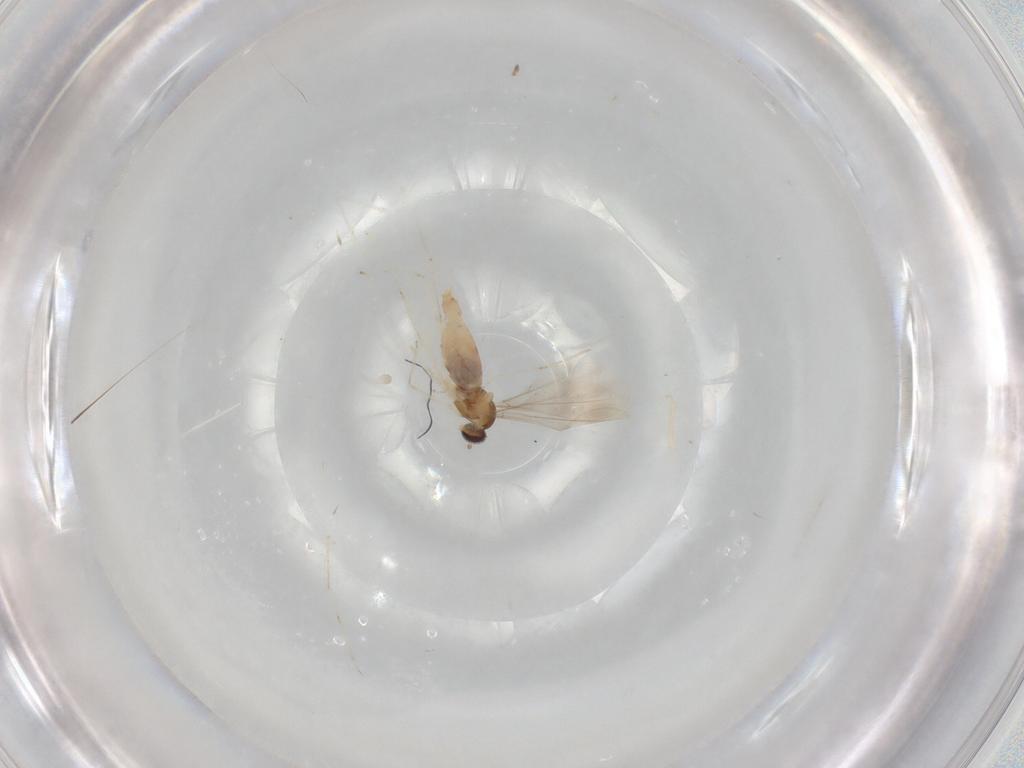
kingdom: Animalia
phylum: Arthropoda
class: Insecta
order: Diptera
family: Cecidomyiidae
